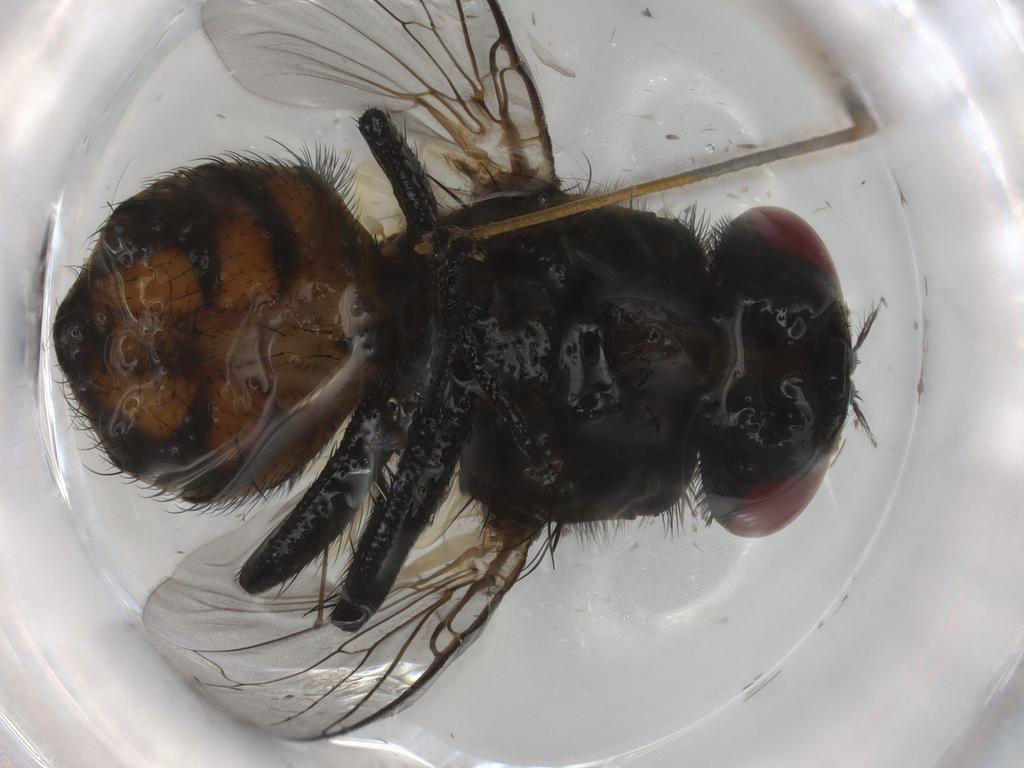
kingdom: Animalia
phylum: Arthropoda
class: Insecta
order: Diptera
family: Limoniidae
